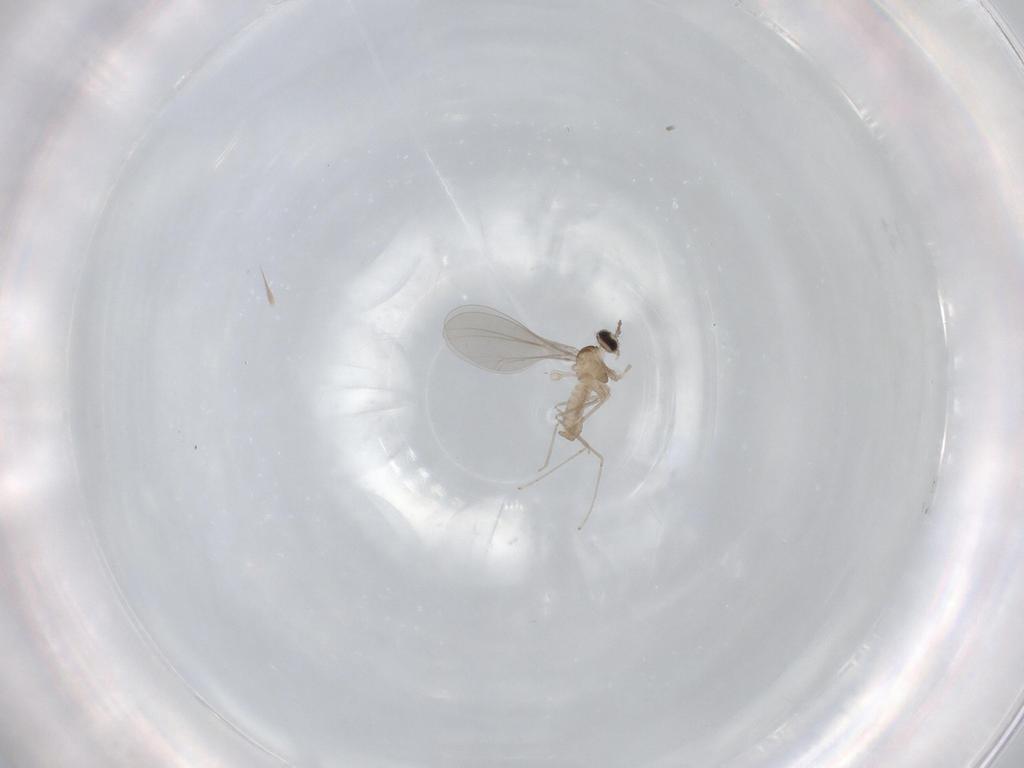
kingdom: Animalia
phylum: Arthropoda
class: Insecta
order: Diptera
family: Cecidomyiidae
